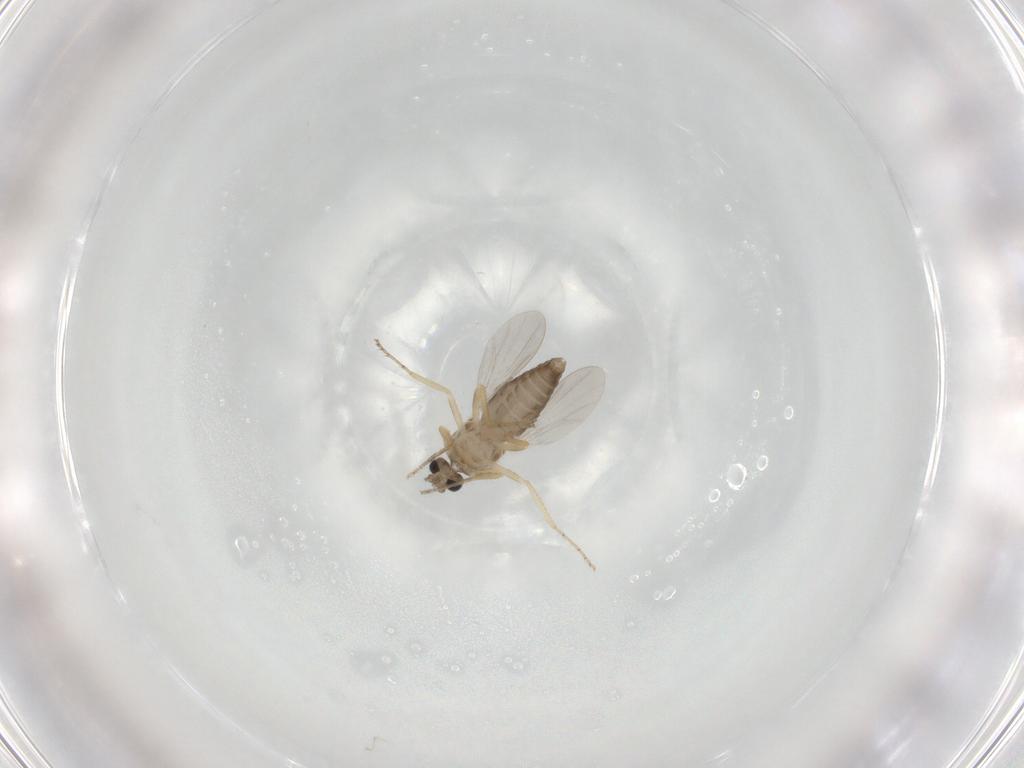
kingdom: Animalia
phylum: Arthropoda
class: Insecta
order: Diptera
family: Ceratopogonidae
